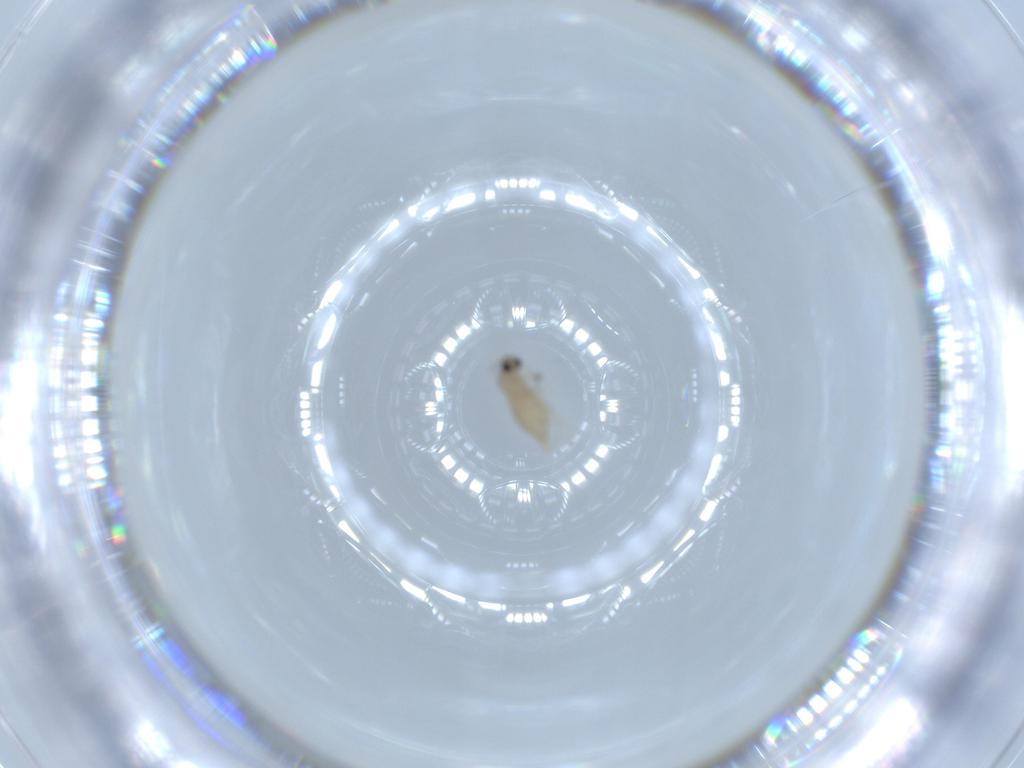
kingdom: Animalia
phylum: Arthropoda
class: Insecta
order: Diptera
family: Cecidomyiidae
